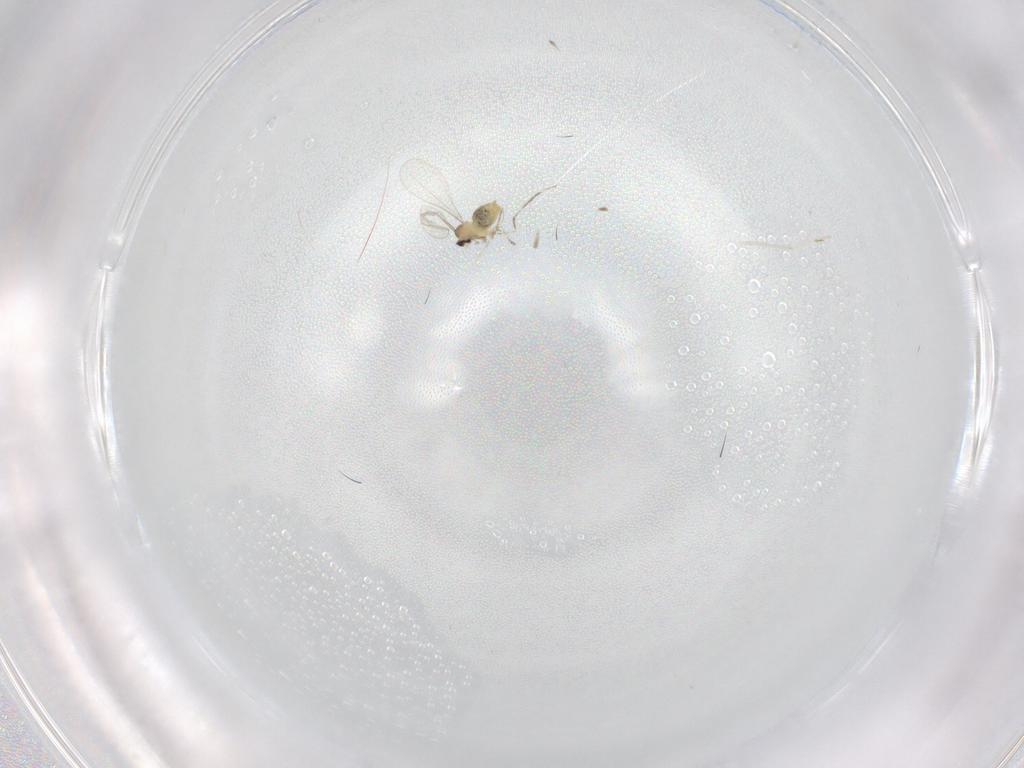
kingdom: Animalia
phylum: Arthropoda
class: Insecta
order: Diptera
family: Cecidomyiidae
